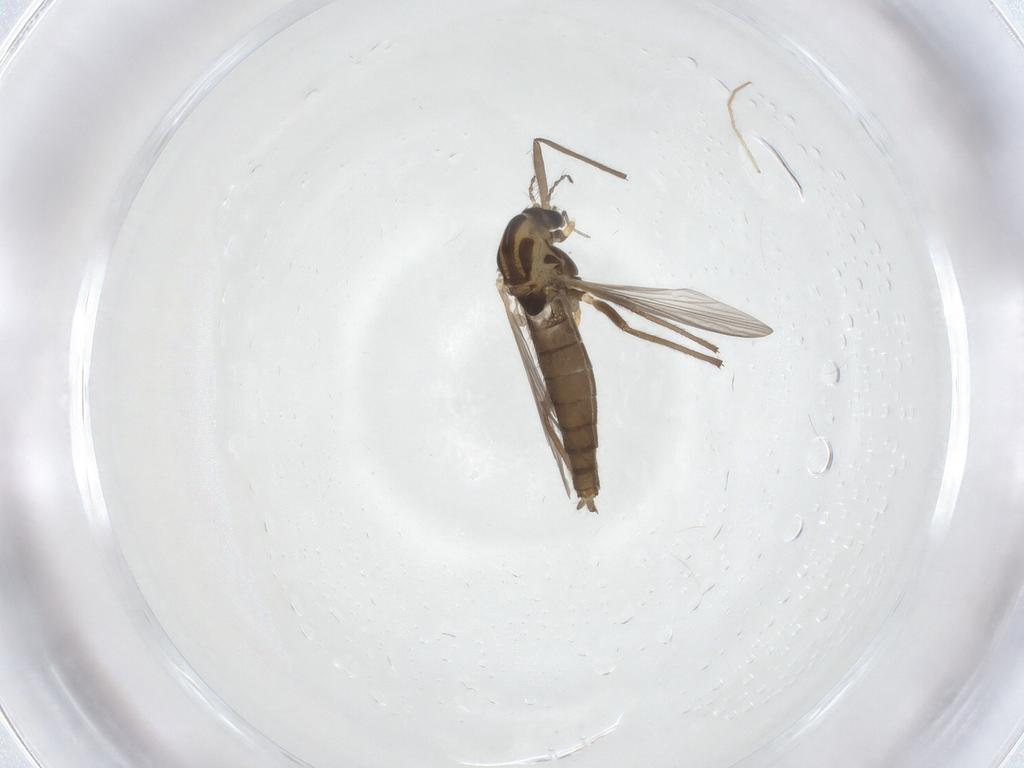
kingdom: Animalia
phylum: Arthropoda
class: Insecta
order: Diptera
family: Chironomidae
